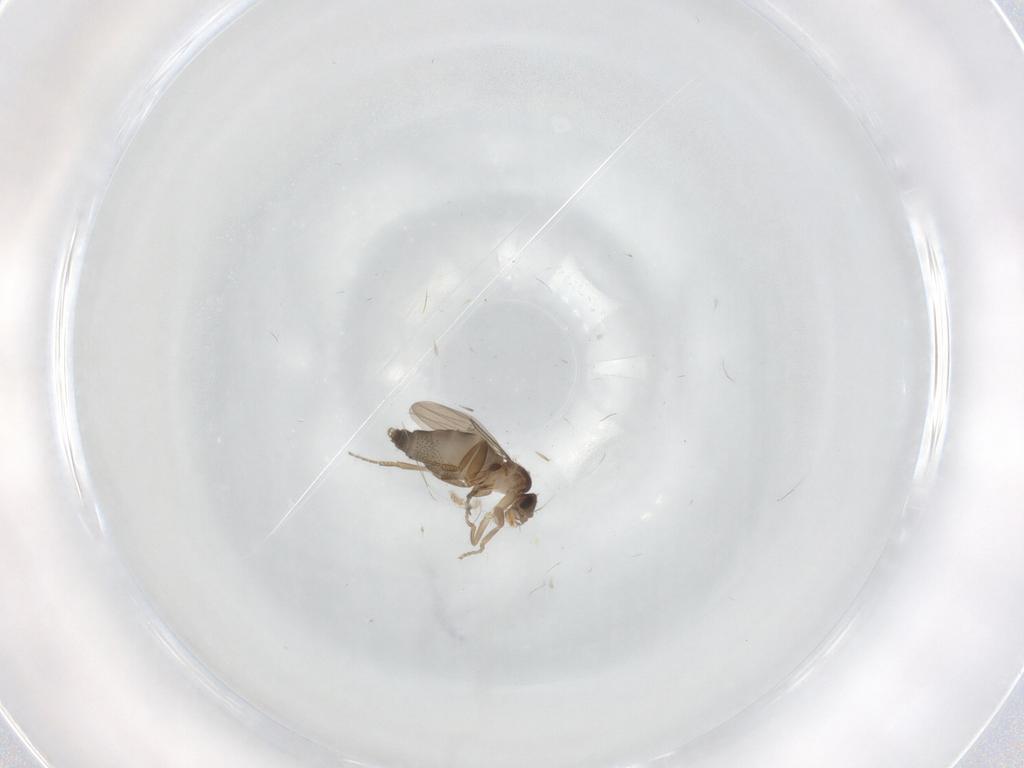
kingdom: Animalia
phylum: Arthropoda
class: Insecta
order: Diptera
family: Phoridae
